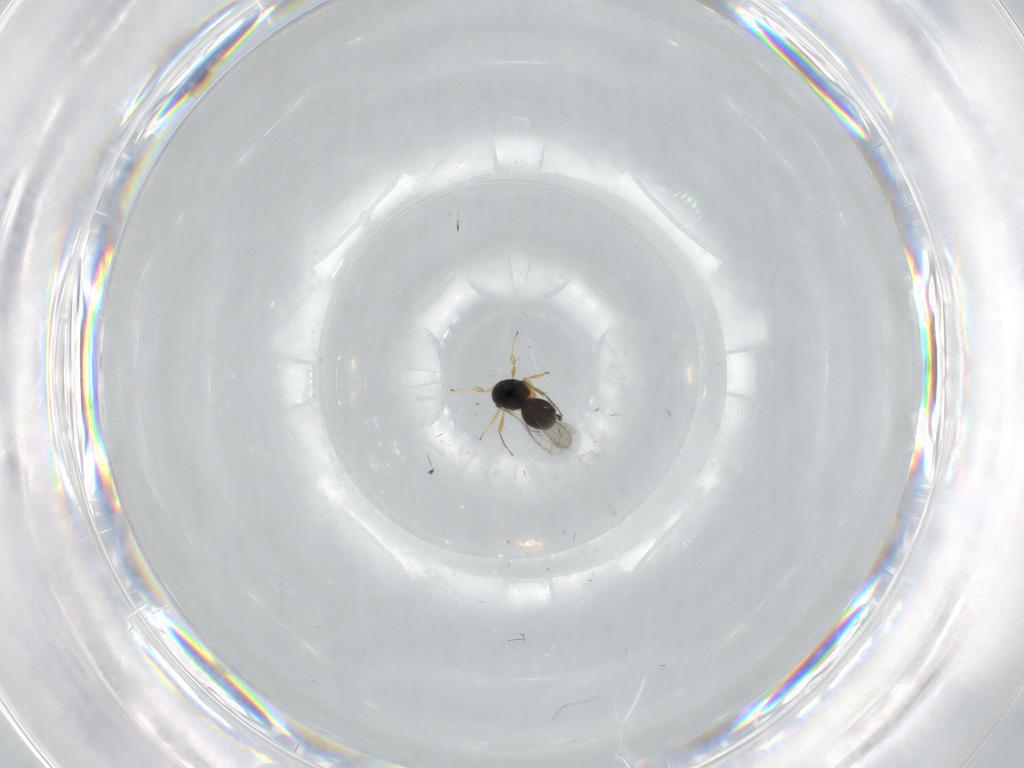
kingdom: Animalia
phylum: Arthropoda
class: Insecta
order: Hymenoptera
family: Scelionidae
